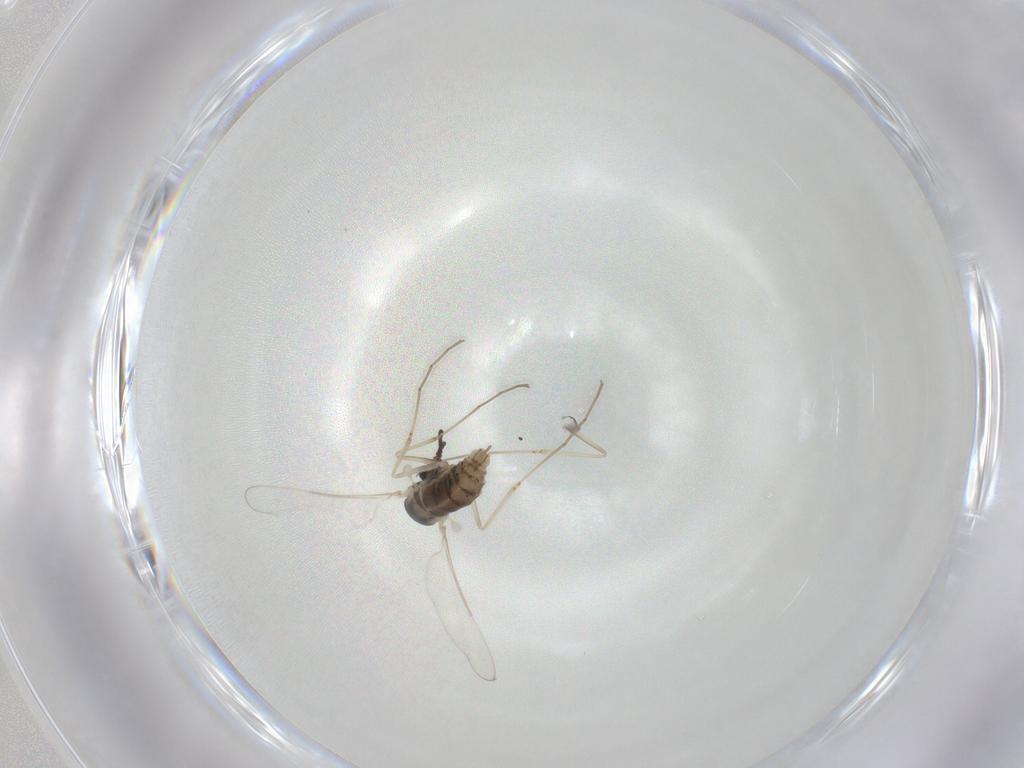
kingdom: Animalia
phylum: Arthropoda
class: Insecta
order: Diptera
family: Cecidomyiidae
